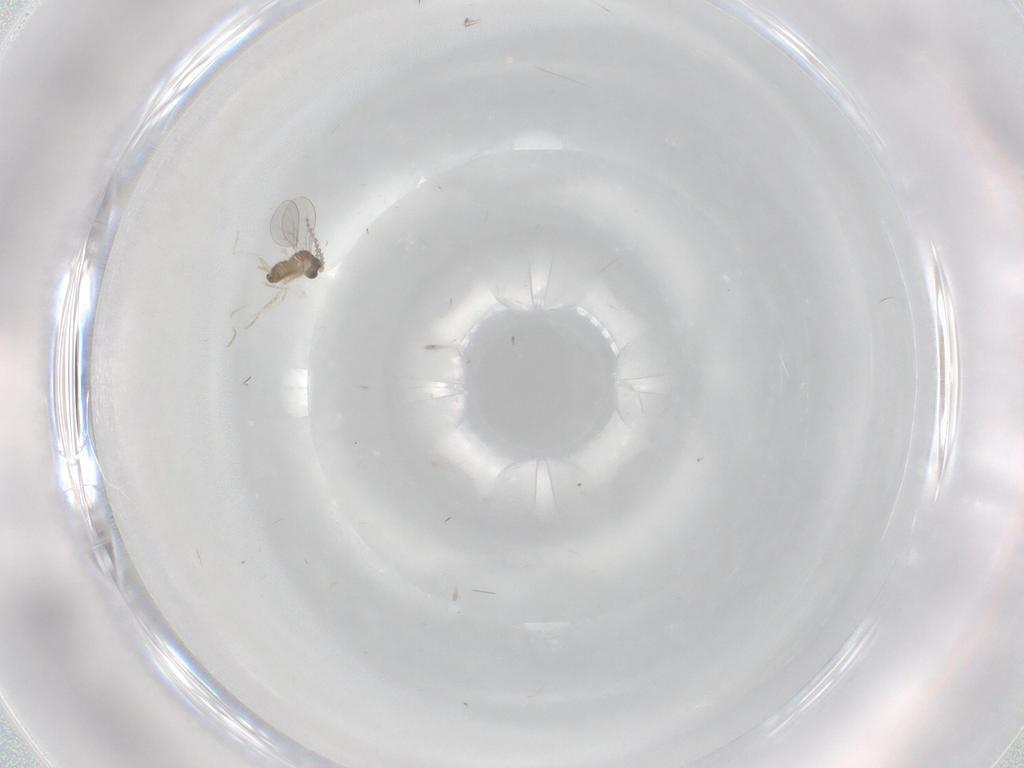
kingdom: Animalia
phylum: Arthropoda
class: Insecta
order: Diptera
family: Cecidomyiidae
